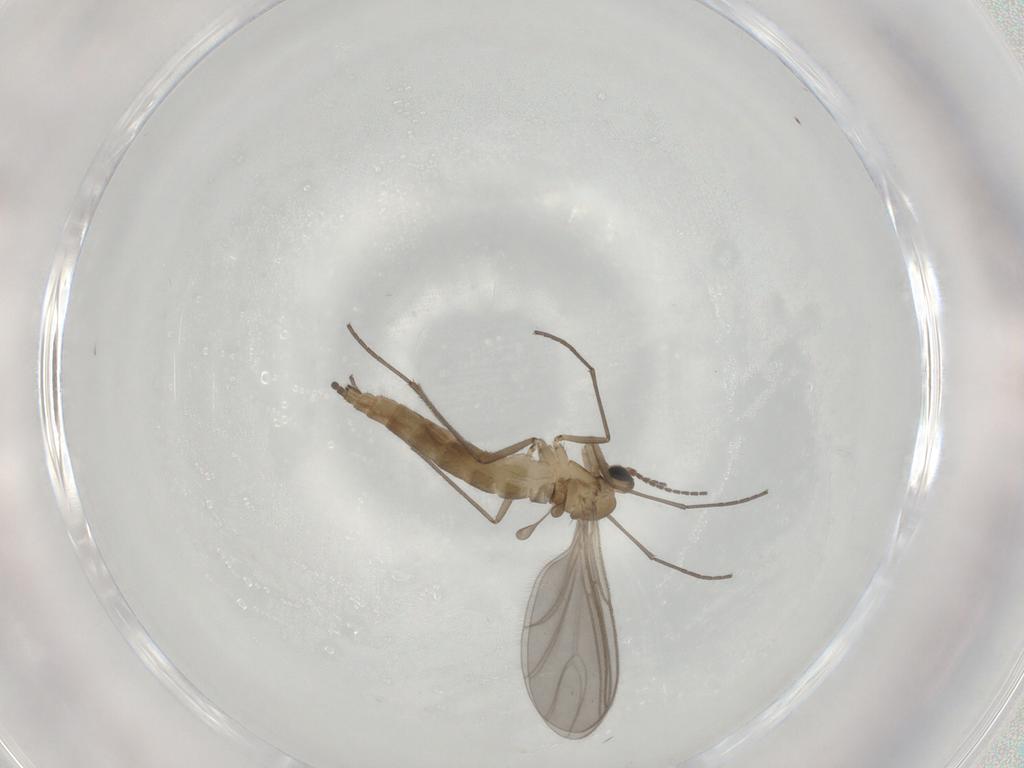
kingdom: Animalia
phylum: Arthropoda
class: Insecta
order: Diptera
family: Sciaridae
